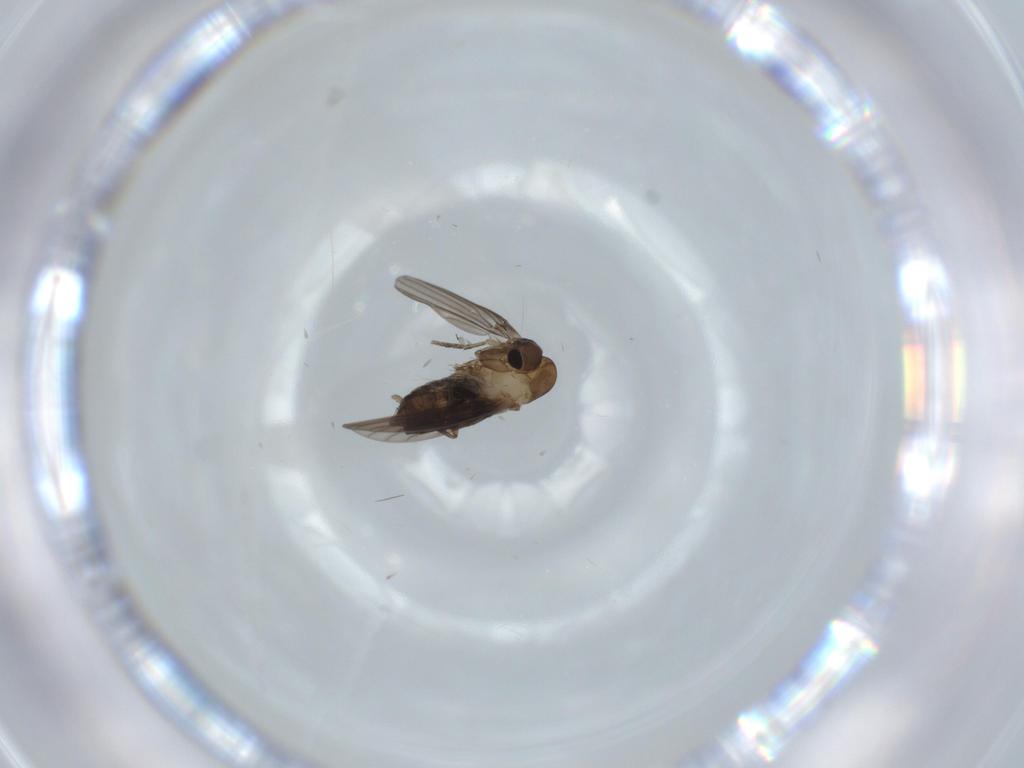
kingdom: Animalia
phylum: Arthropoda
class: Insecta
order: Diptera
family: Psychodidae
